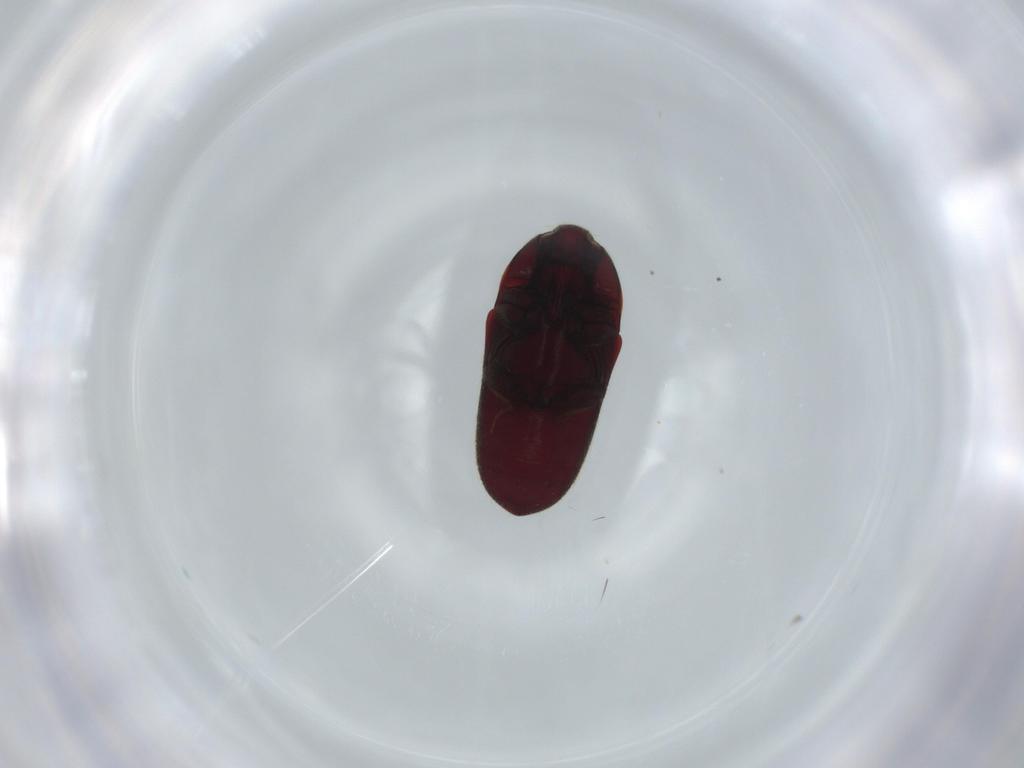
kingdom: Animalia
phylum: Arthropoda
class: Insecta
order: Coleoptera
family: Throscidae
